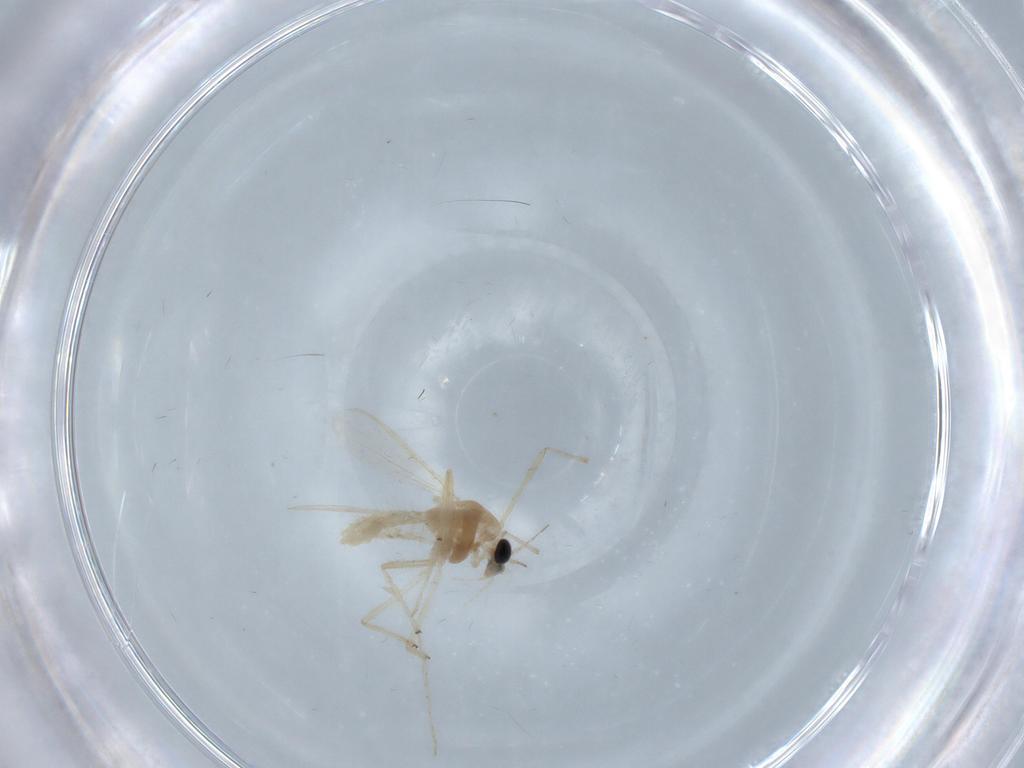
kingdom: Animalia
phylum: Arthropoda
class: Insecta
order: Diptera
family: Chironomidae
